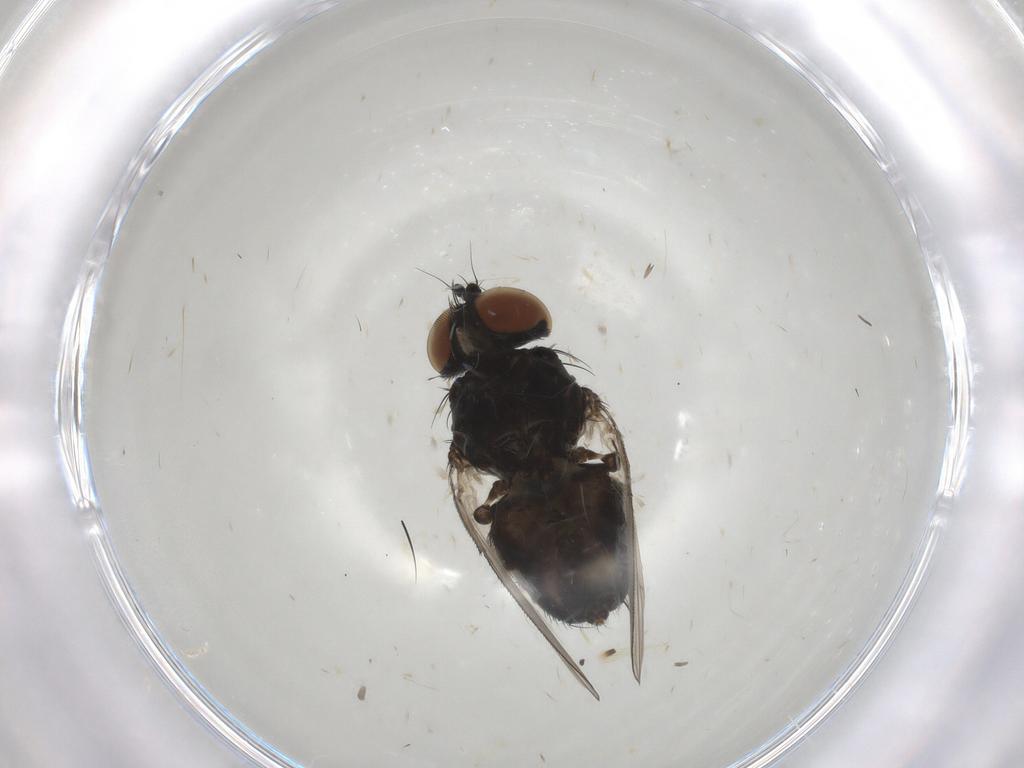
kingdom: Animalia
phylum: Arthropoda
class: Insecta
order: Diptera
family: Milichiidae
